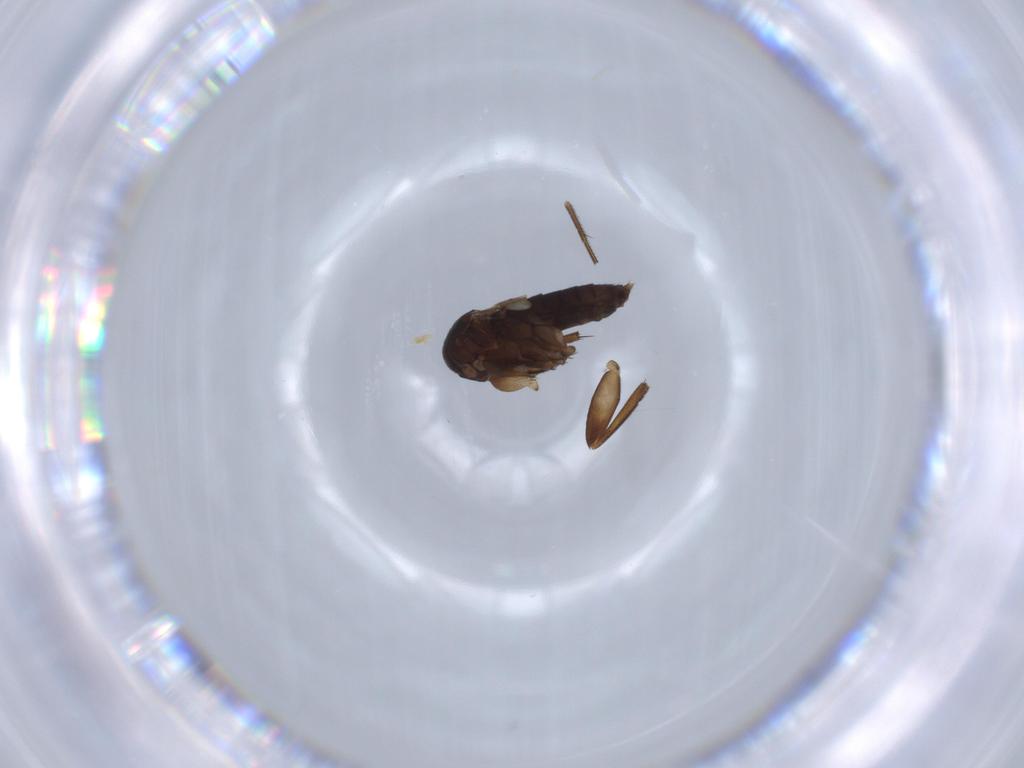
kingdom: Animalia
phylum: Arthropoda
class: Insecta
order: Diptera
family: Phoridae
